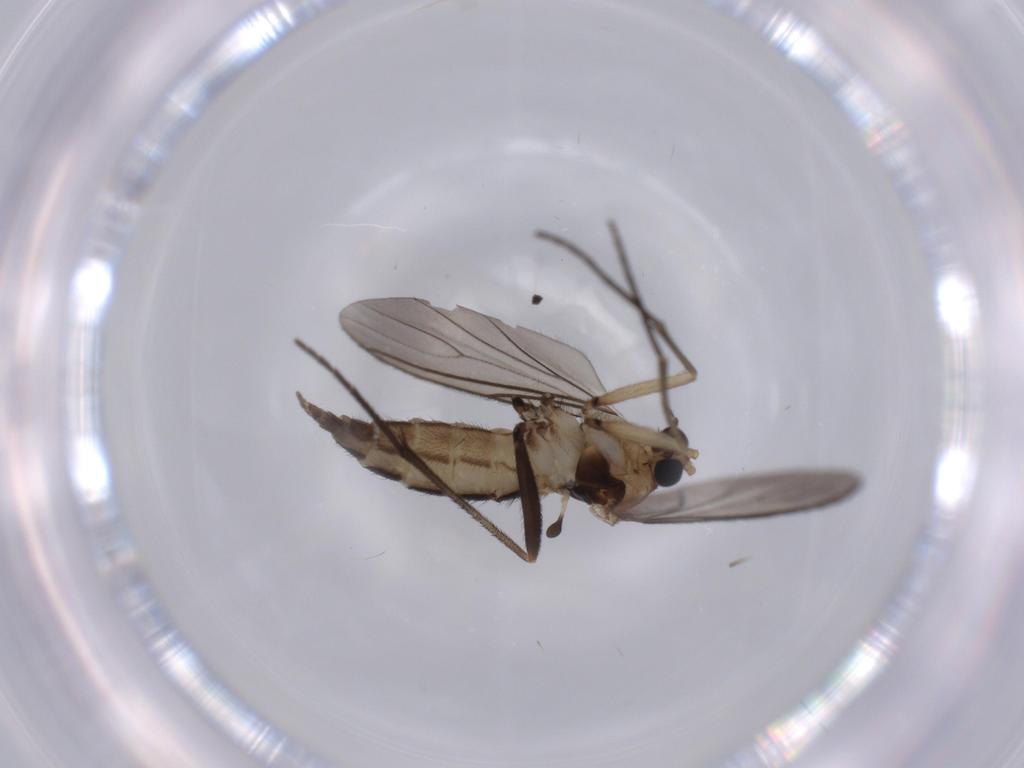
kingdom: Animalia
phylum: Arthropoda
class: Insecta
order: Diptera
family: Sciaridae
